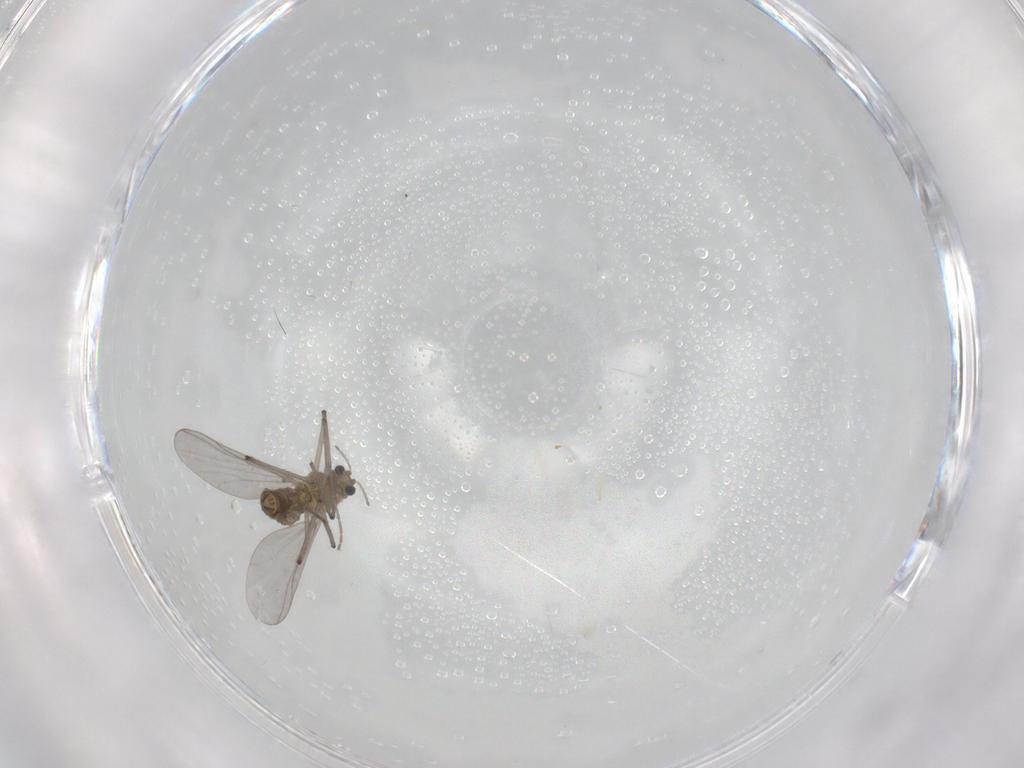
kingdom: Animalia
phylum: Arthropoda
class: Insecta
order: Diptera
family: Chironomidae
